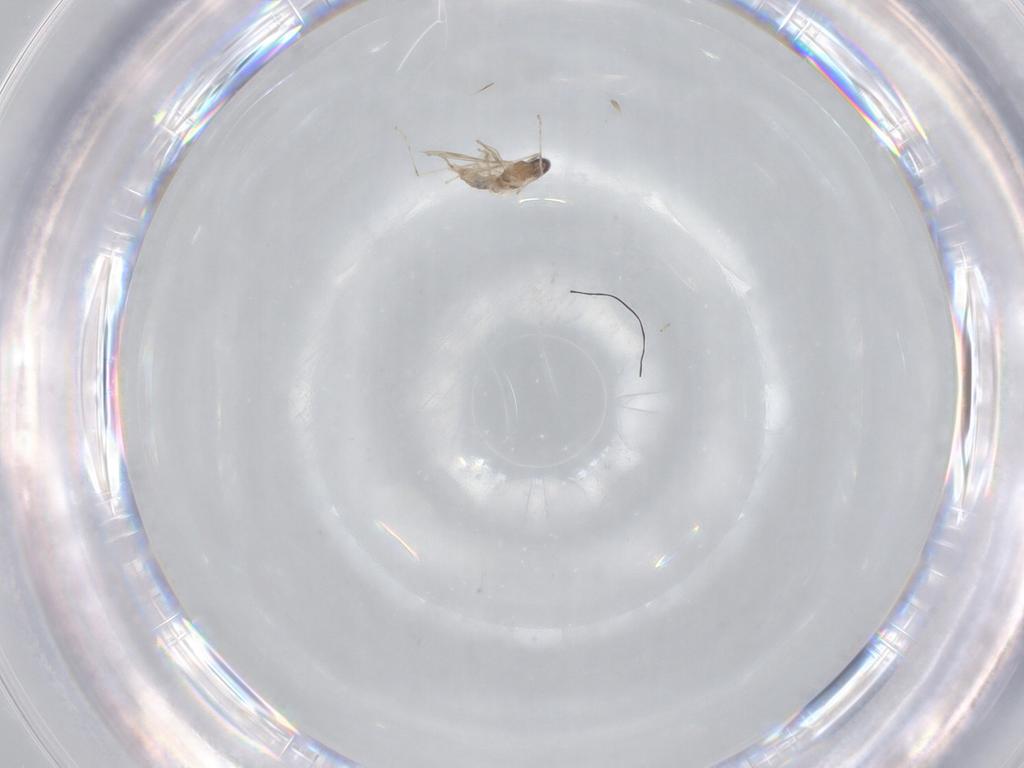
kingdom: Animalia
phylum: Arthropoda
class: Insecta
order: Diptera
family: Cecidomyiidae
